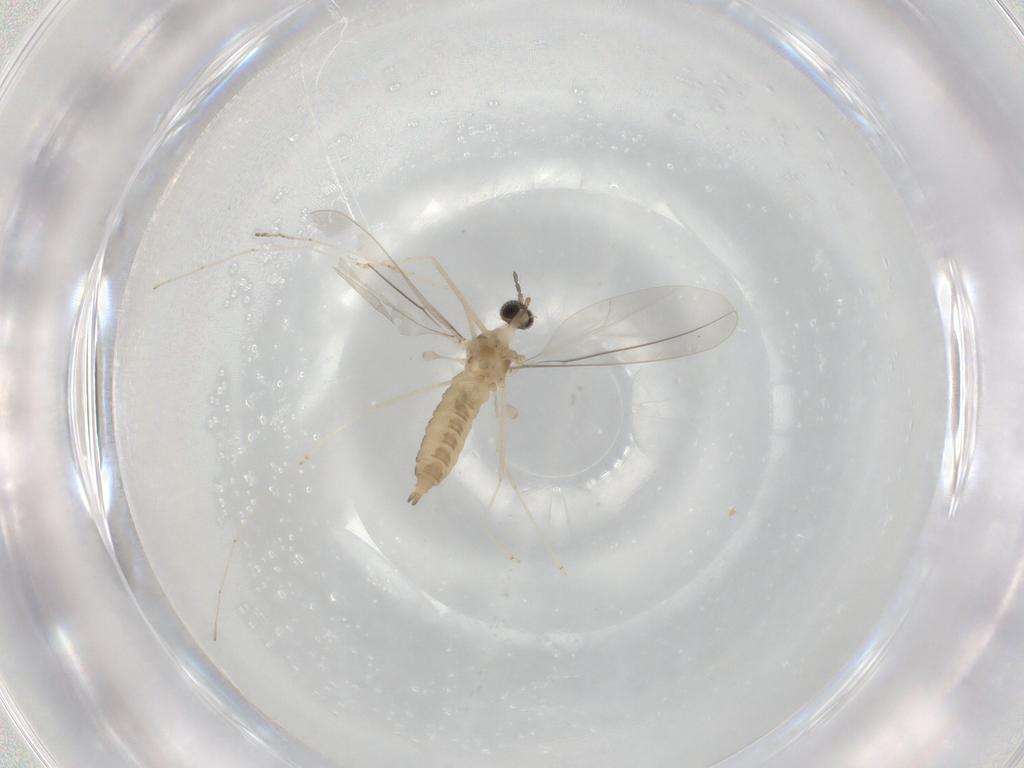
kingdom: Animalia
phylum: Arthropoda
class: Insecta
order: Diptera
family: Cecidomyiidae
